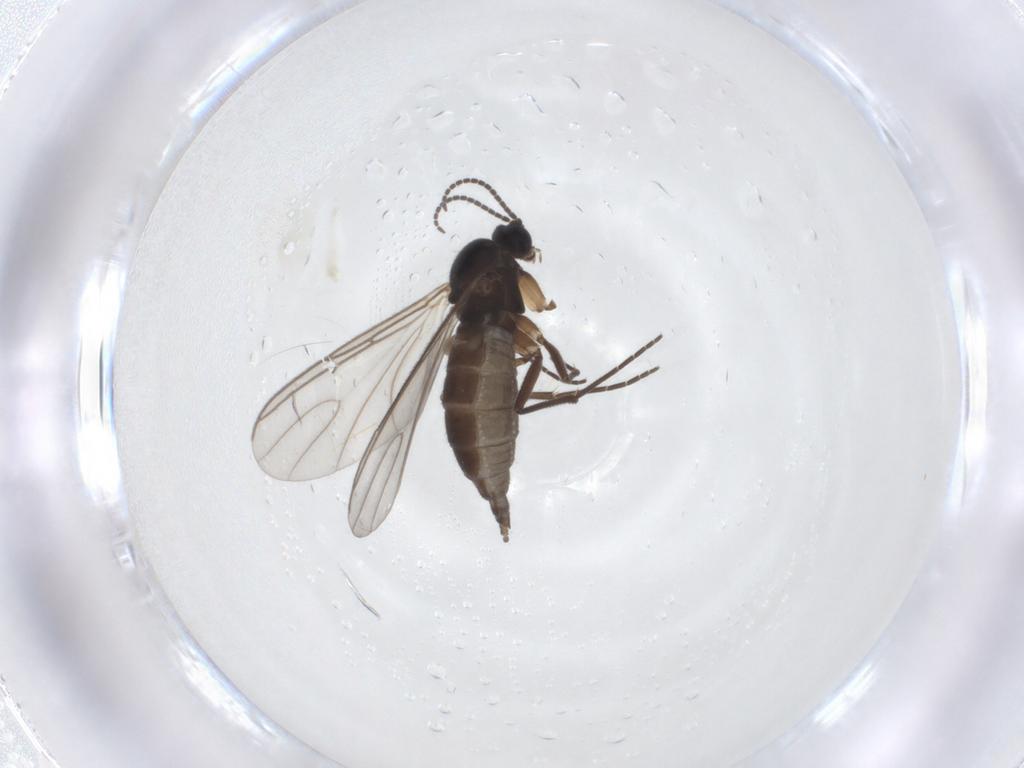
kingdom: Animalia
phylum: Arthropoda
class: Insecta
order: Diptera
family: Sciaridae
